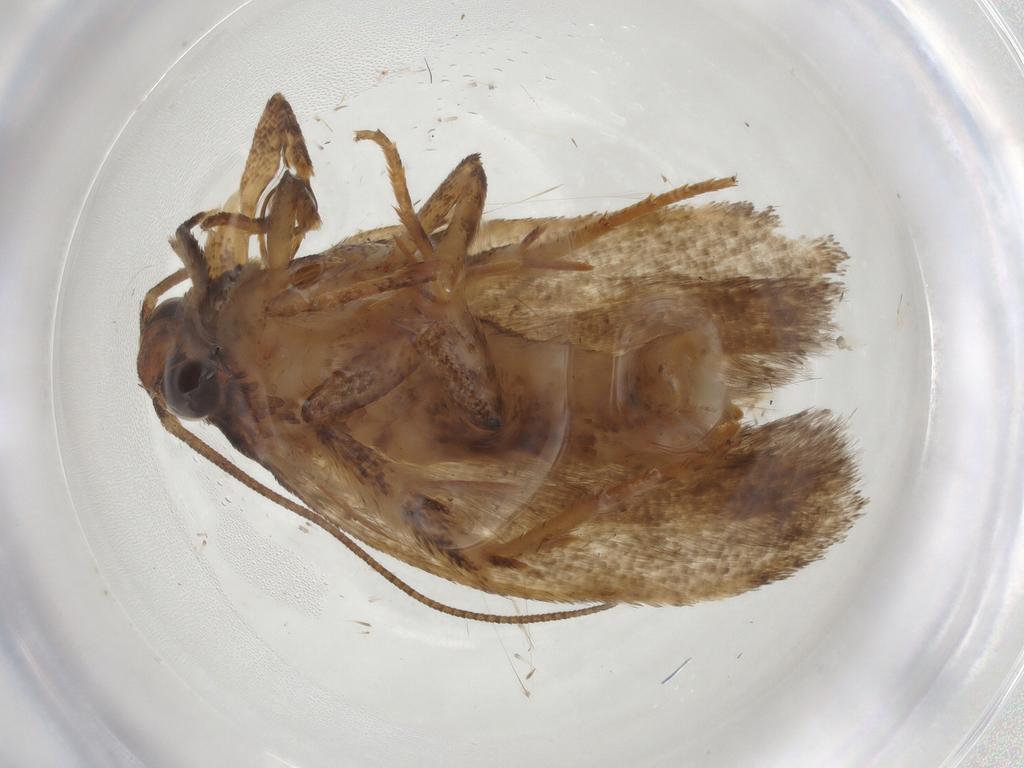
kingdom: Animalia
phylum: Arthropoda
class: Insecta
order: Lepidoptera
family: Gelechiidae
